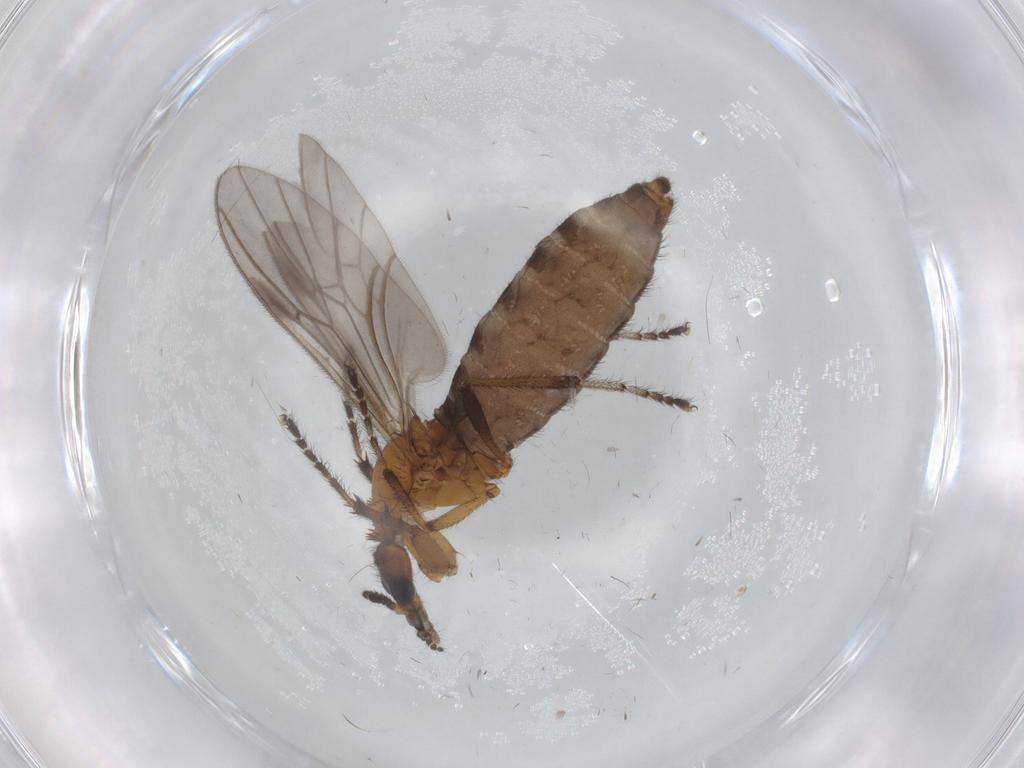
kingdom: Animalia
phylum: Arthropoda
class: Insecta
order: Diptera
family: Bibionidae
